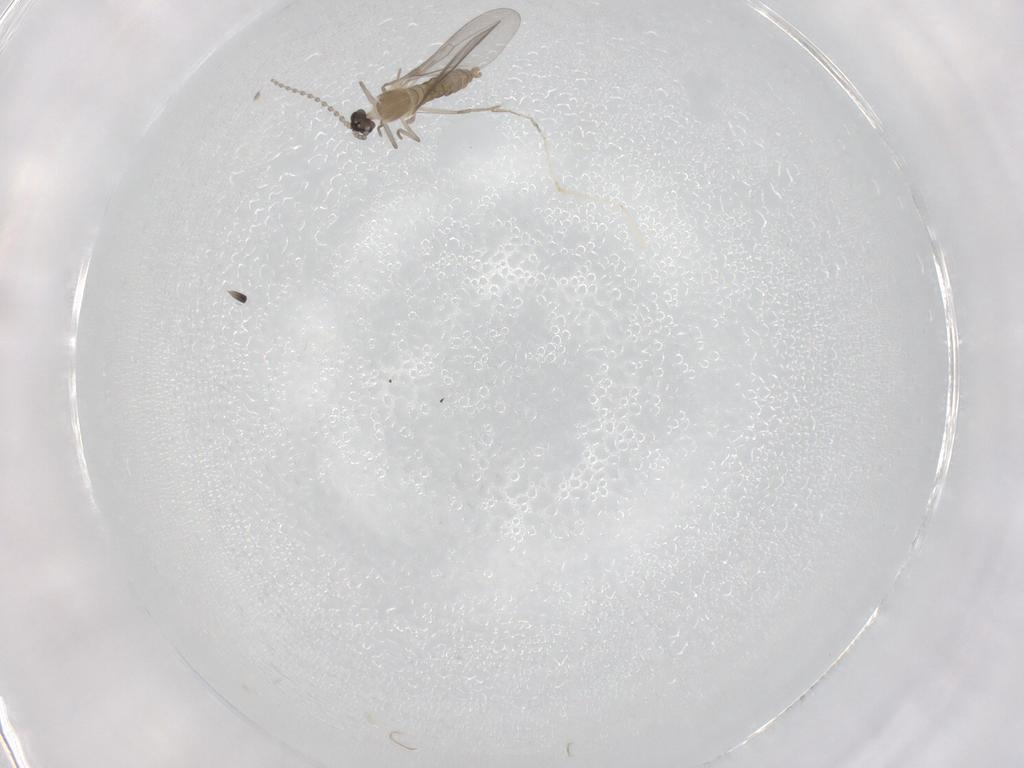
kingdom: Animalia
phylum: Arthropoda
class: Insecta
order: Diptera
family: Cecidomyiidae
